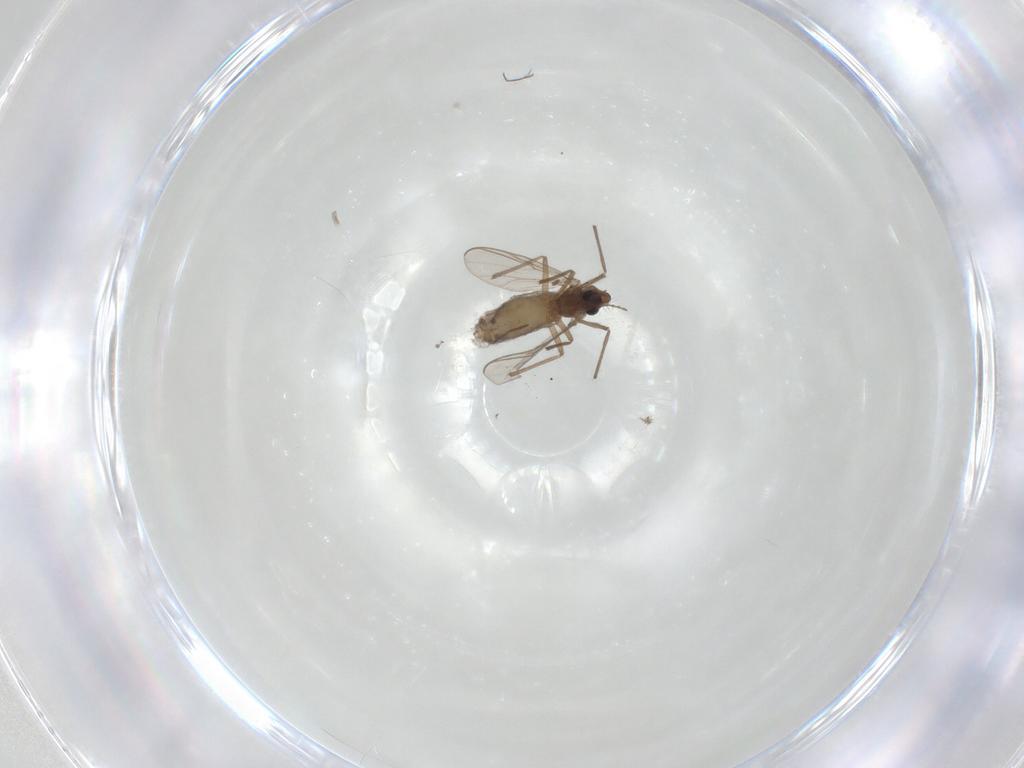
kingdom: Animalia
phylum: Arthropoda
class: Insecta
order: Diptera
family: Chironomidae
